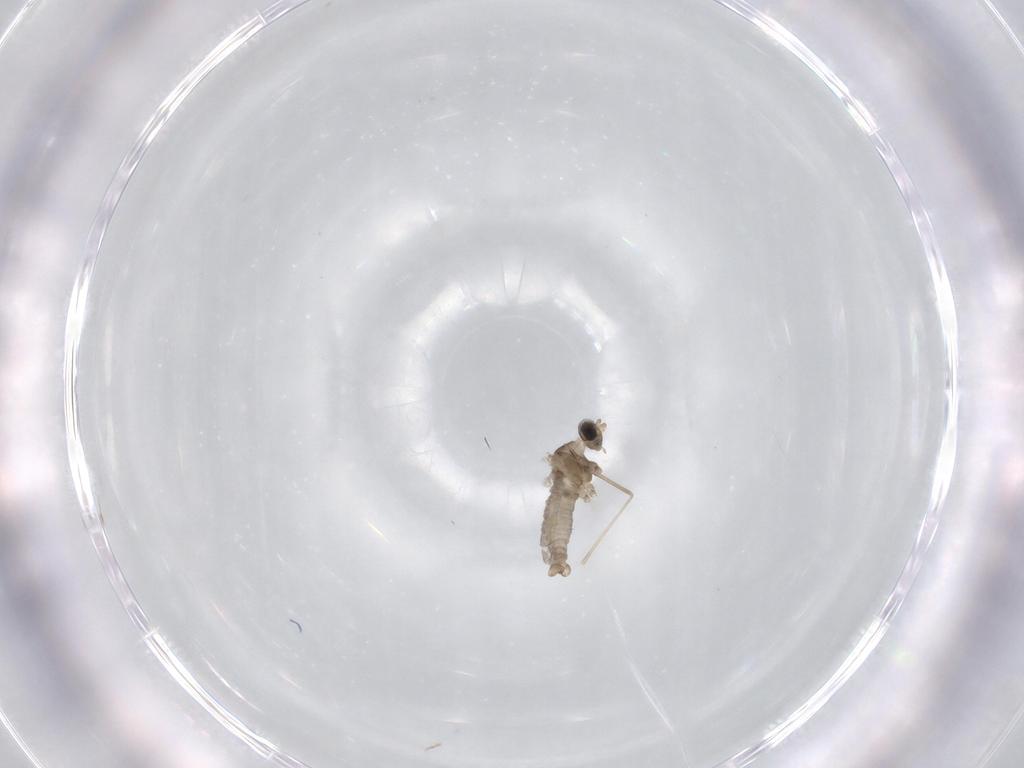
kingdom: Animalia
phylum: Arthropoda
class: Insecta
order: Diptera
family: Cecidomyiidae
